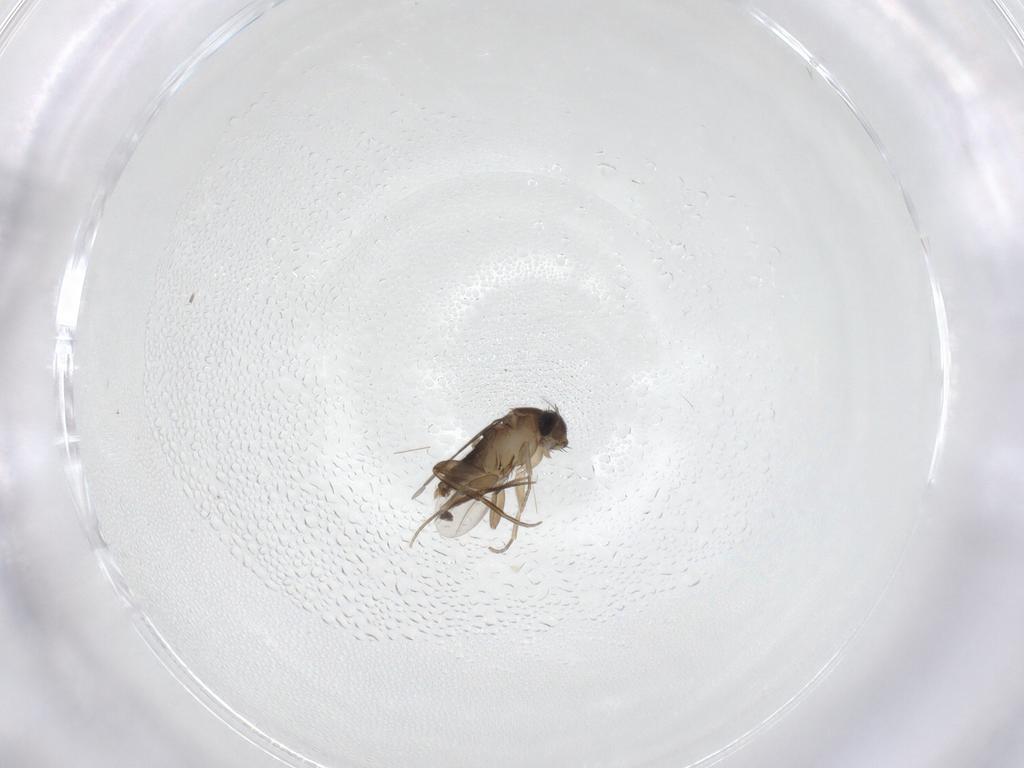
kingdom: Animalia
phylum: Arthropoda
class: Insecta
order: Diptera
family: Phoridae
